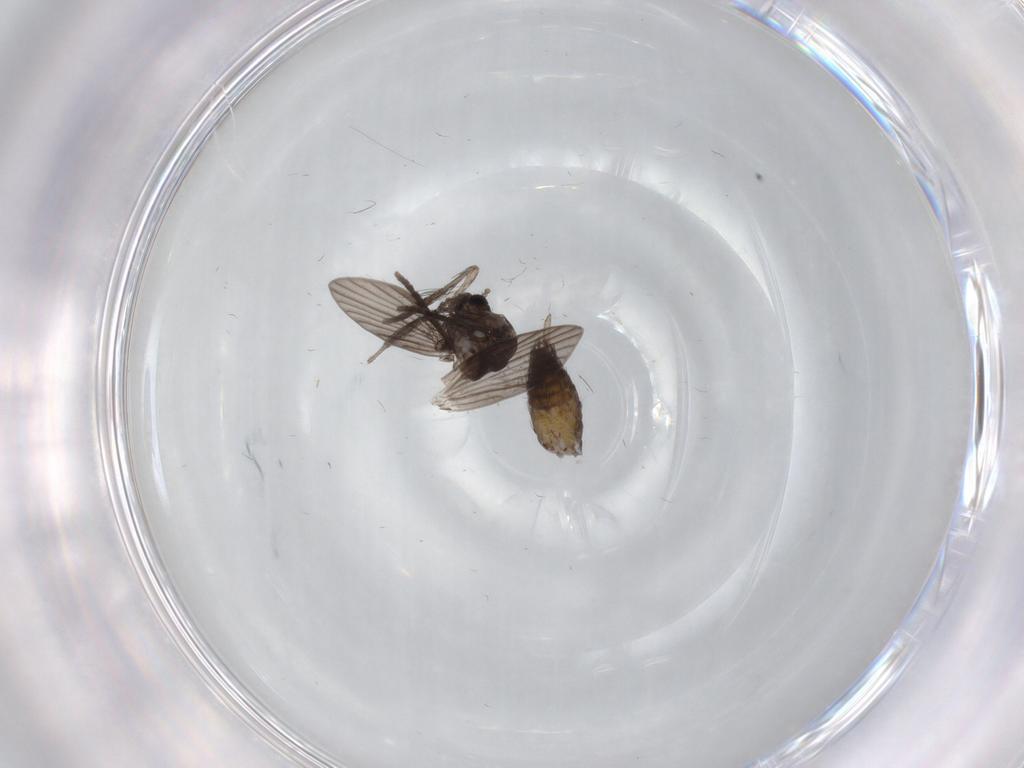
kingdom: Animalia
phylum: Arthropoda
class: Insecta
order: Diptera
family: Psychodidae
